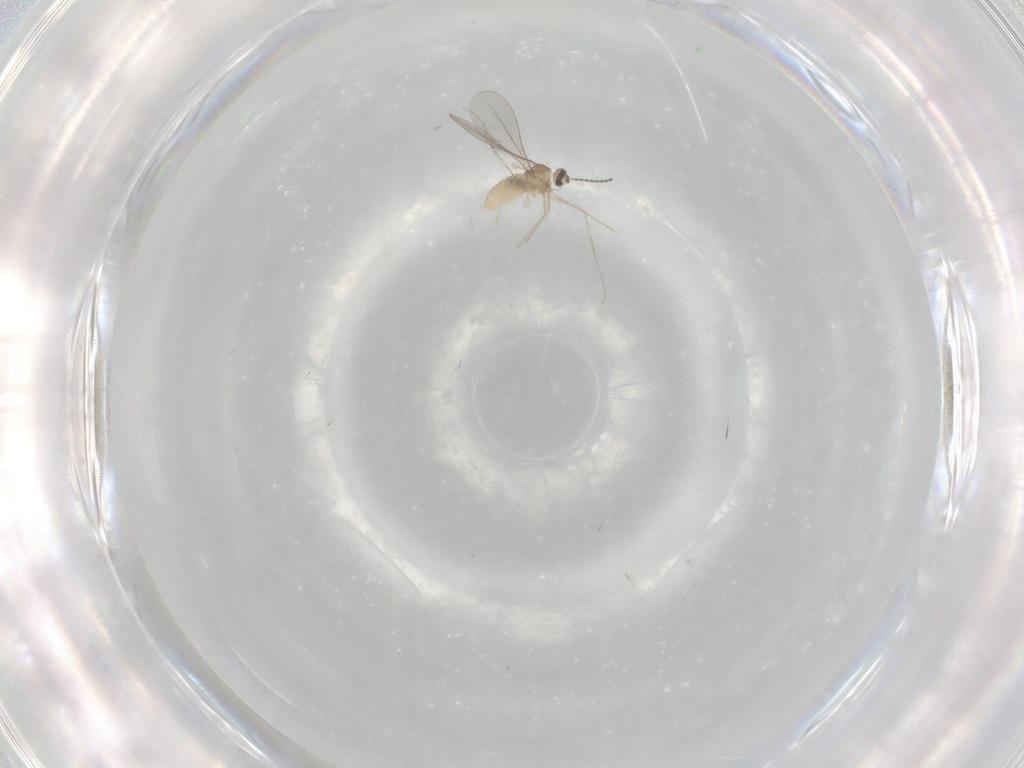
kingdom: Animalia
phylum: Arthropoda
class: Insecta
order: Diptera
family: Cecidomyiidae
